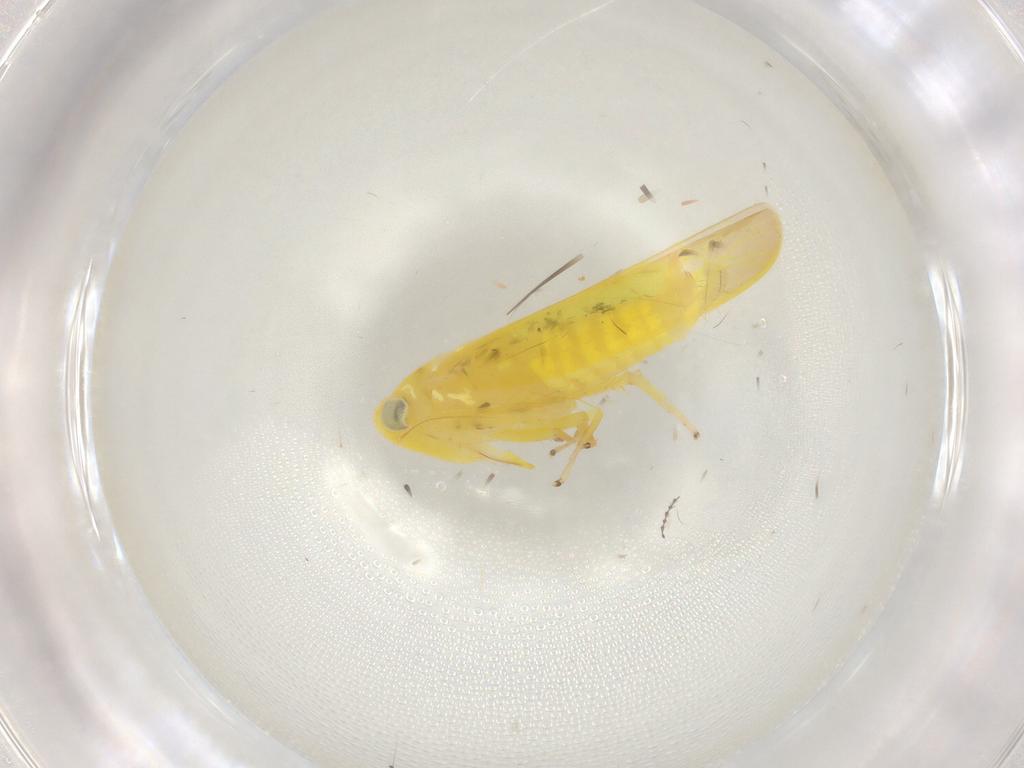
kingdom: Animalia
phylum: Arthropoda
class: Insecta
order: Hemiptera
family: Cicadellidae
